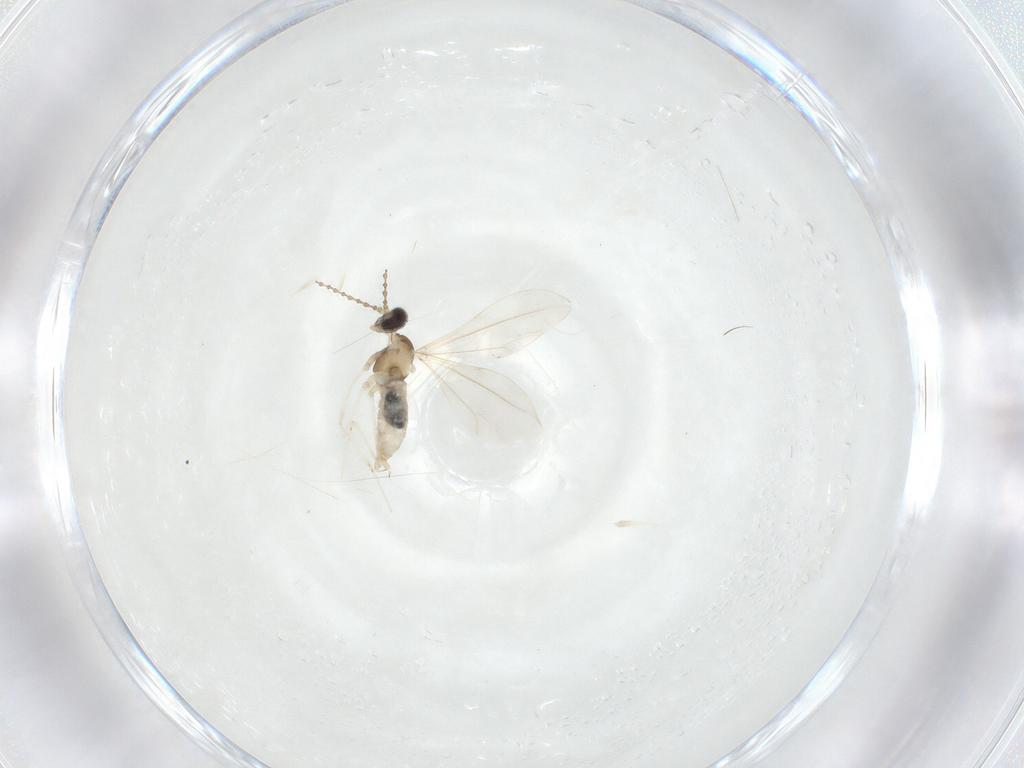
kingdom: Animalia
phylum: Arthropoda
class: Insecta
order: Diptera
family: Cecidomyiidae
